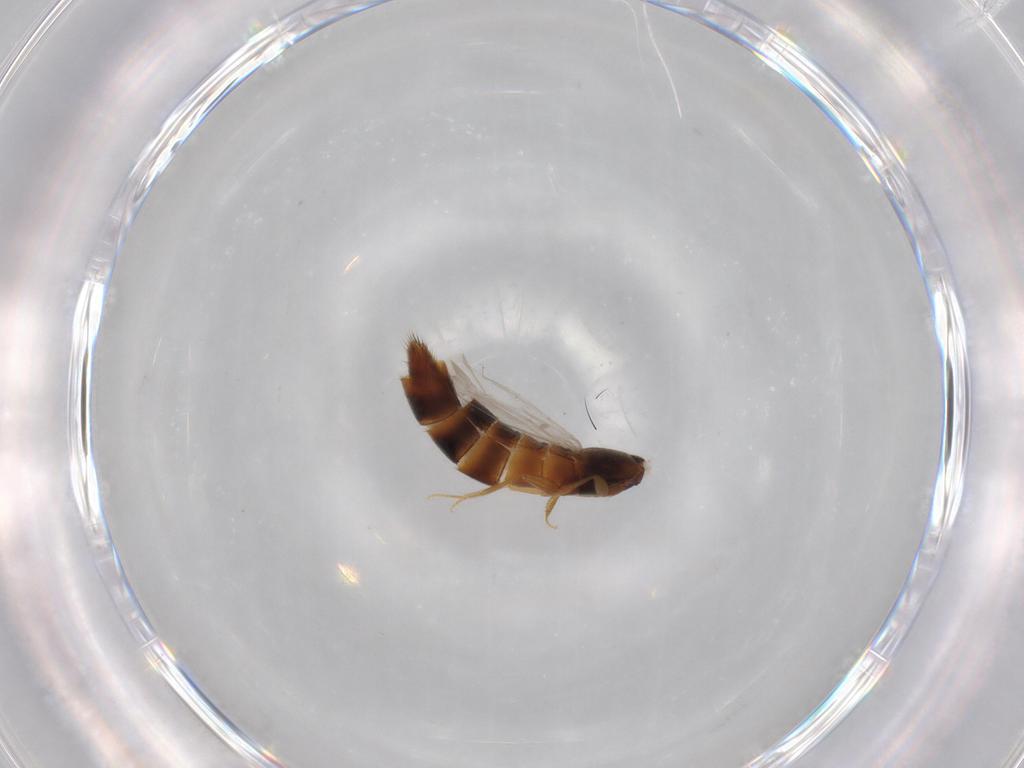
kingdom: Animalia
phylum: Arthropoda
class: Insecta
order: Coleoptera
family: Staphylinidae
